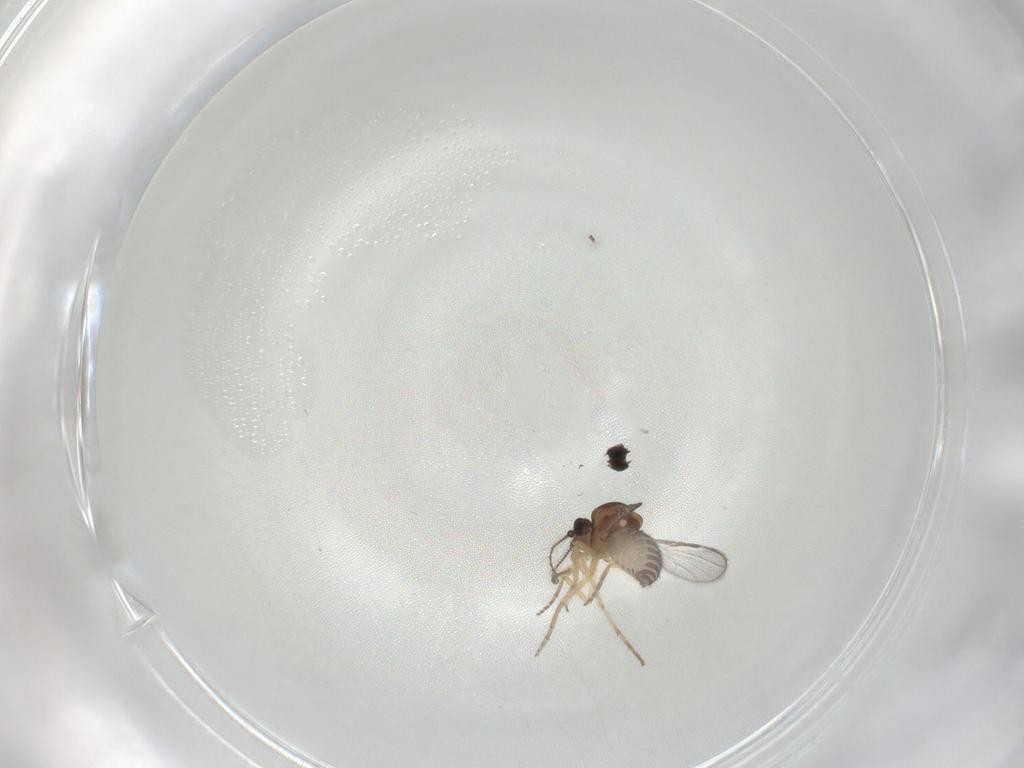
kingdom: Animalia
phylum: Arthropoda
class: Insecta
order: Diptera
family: Ceratopogonidae
